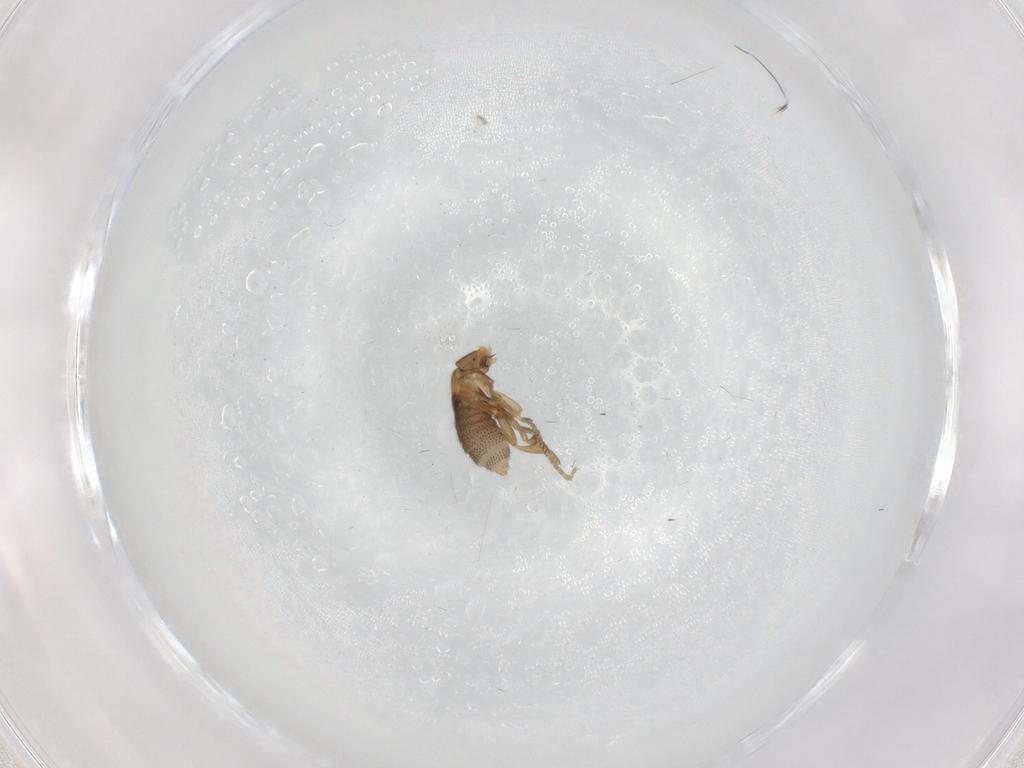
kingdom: Animalia
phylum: Arthropoda
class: Insecta
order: Diptera
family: Phoridae
